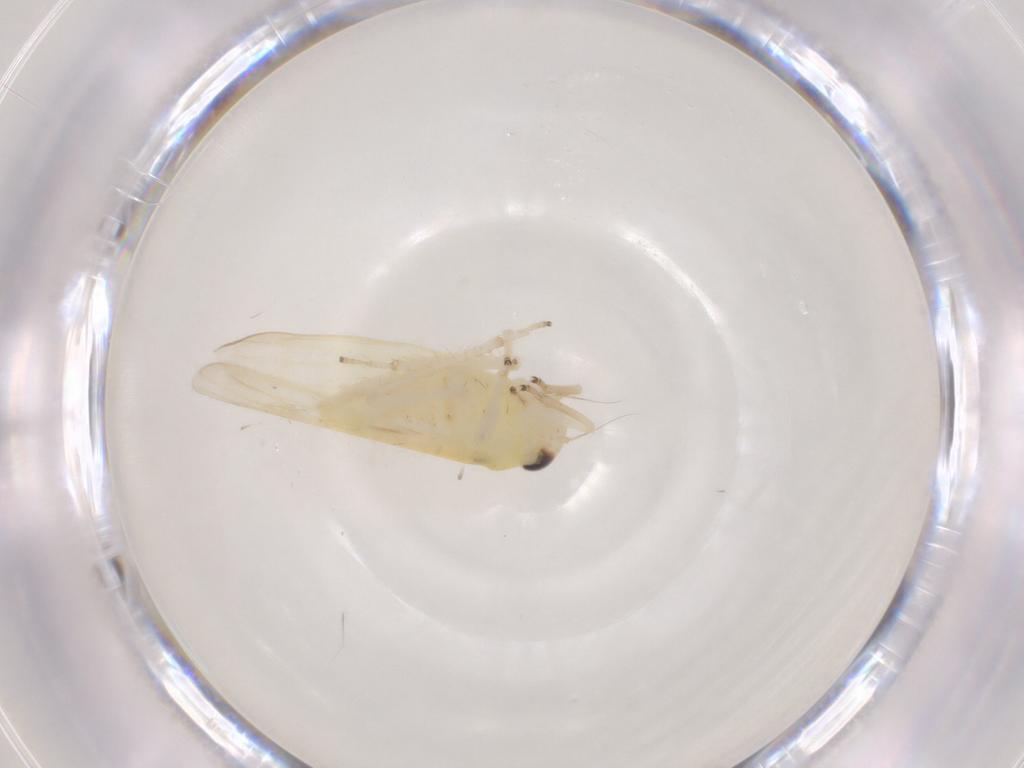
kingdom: Animalia
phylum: Arthropoda
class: Insecta
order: Hemiptera
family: Cicadellidae
